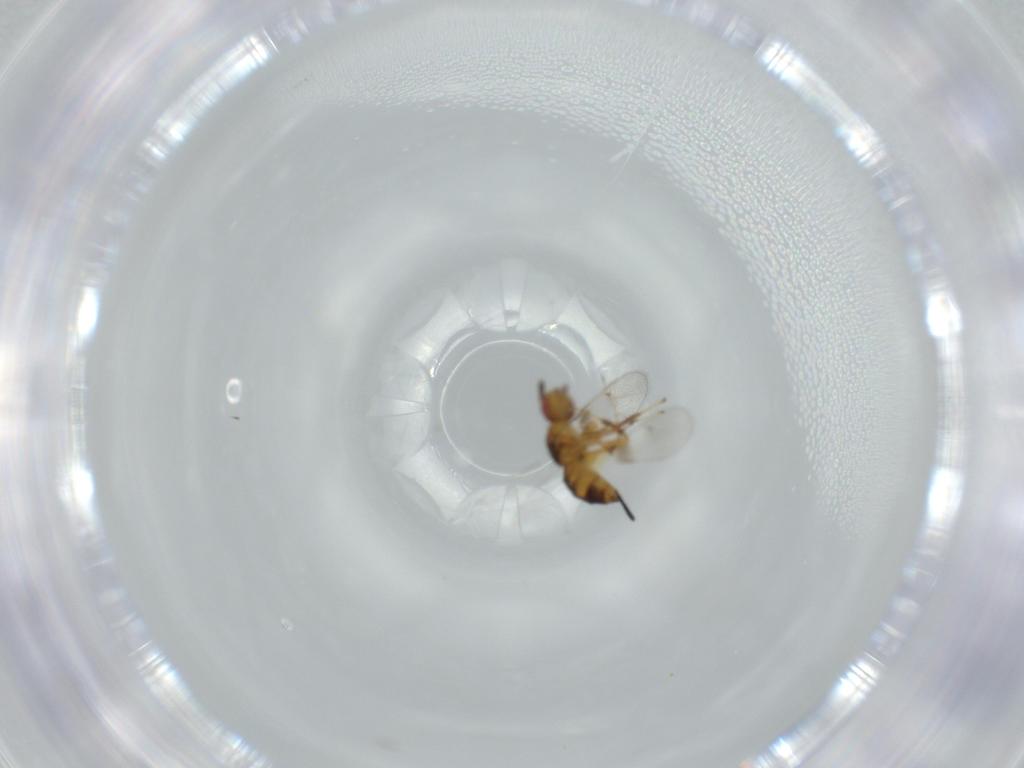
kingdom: Animalia
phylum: Arthropoda
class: Insecta
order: Hymenoptera
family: Torymidae
